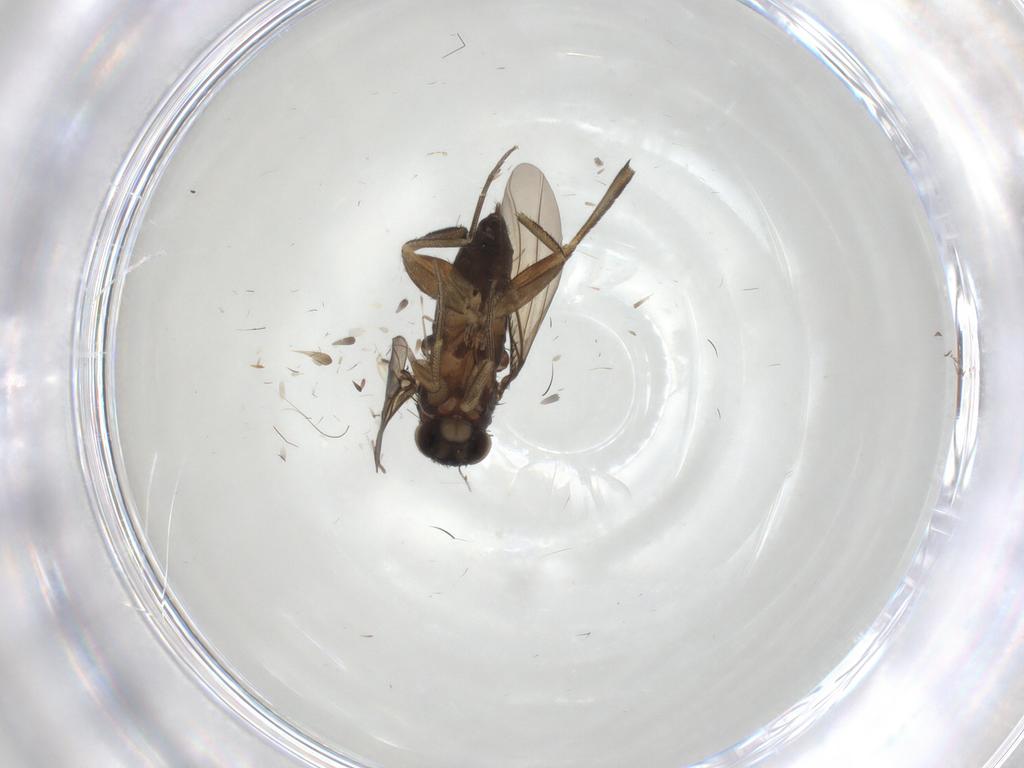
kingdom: Animalia
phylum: Arthropoda
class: Insecta
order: Diptera
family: Phoridae
